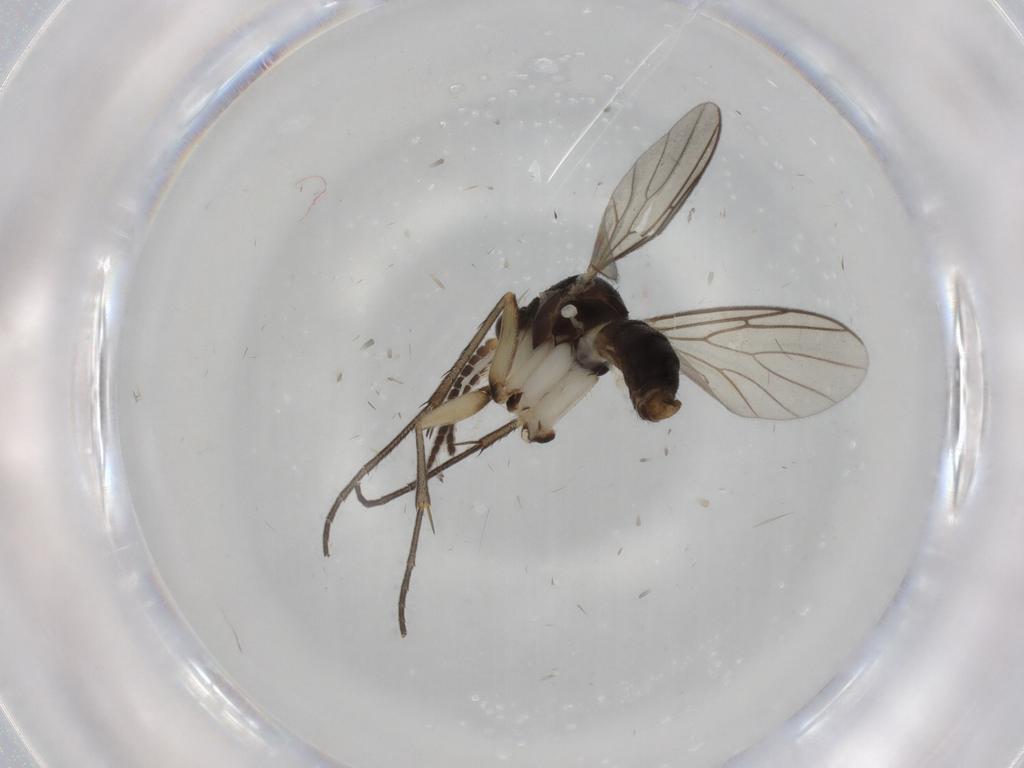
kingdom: Animalia
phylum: Arthropoda
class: Insecta
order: Diptera
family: Mycetophilidae
